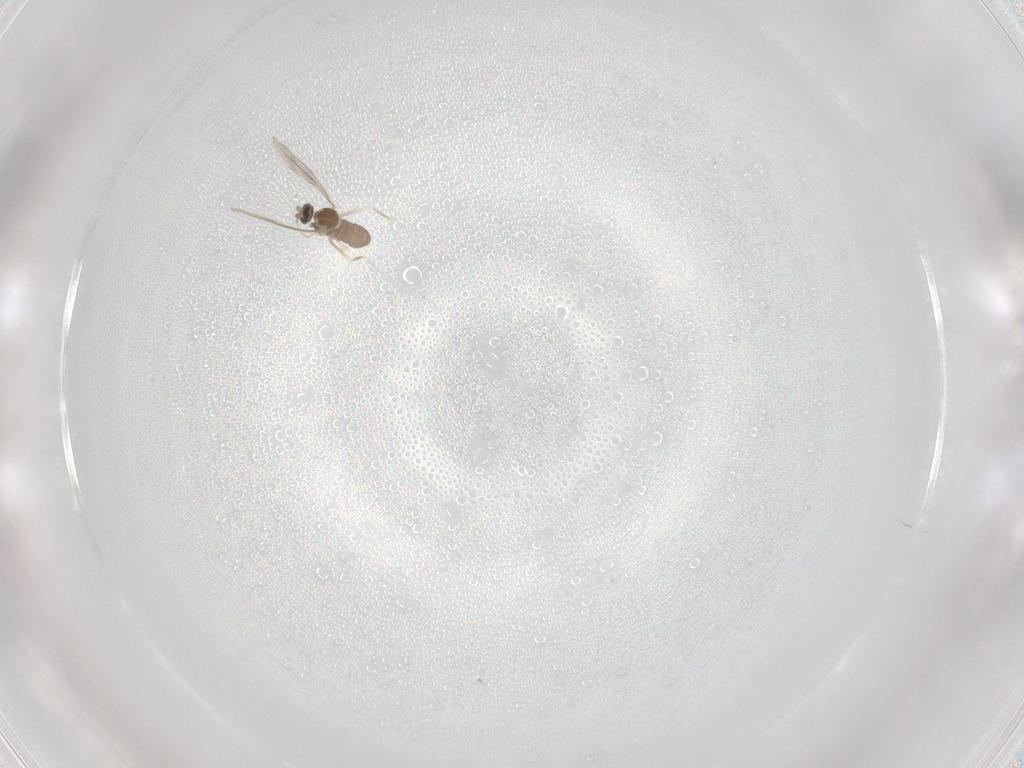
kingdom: Animalia
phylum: Arthropoda
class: Insecta
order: Diptera
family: Cecidomyiidae
